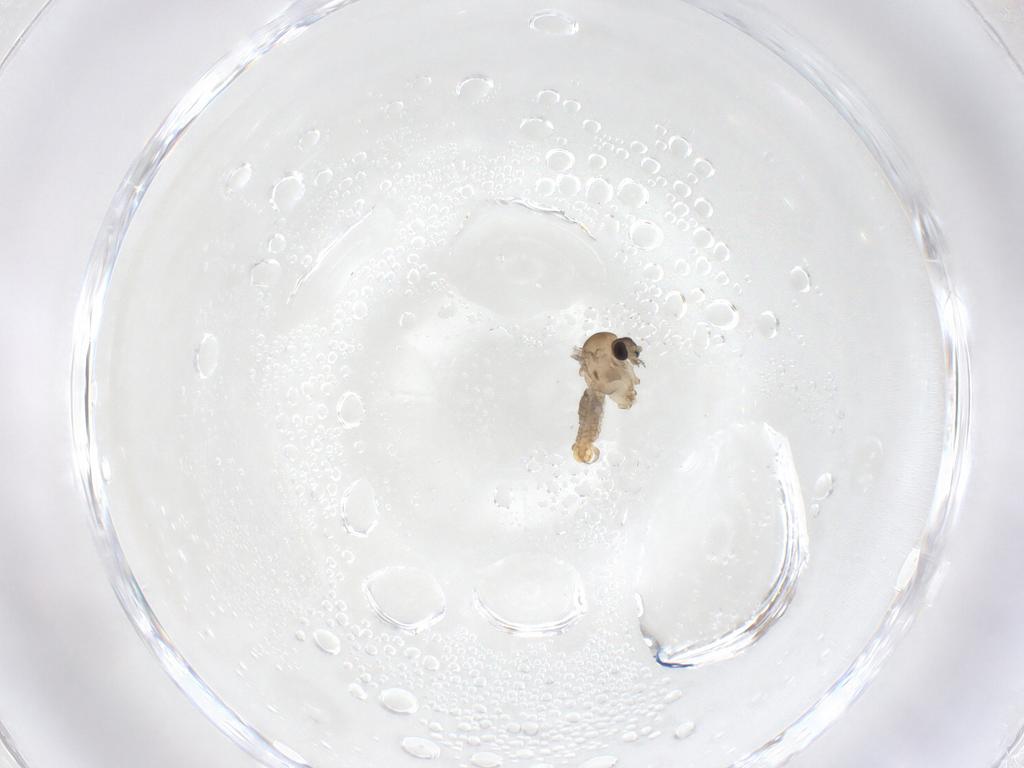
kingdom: Animalia
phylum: Arthropoda
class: Insecta
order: Diptera
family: Psychodidae
